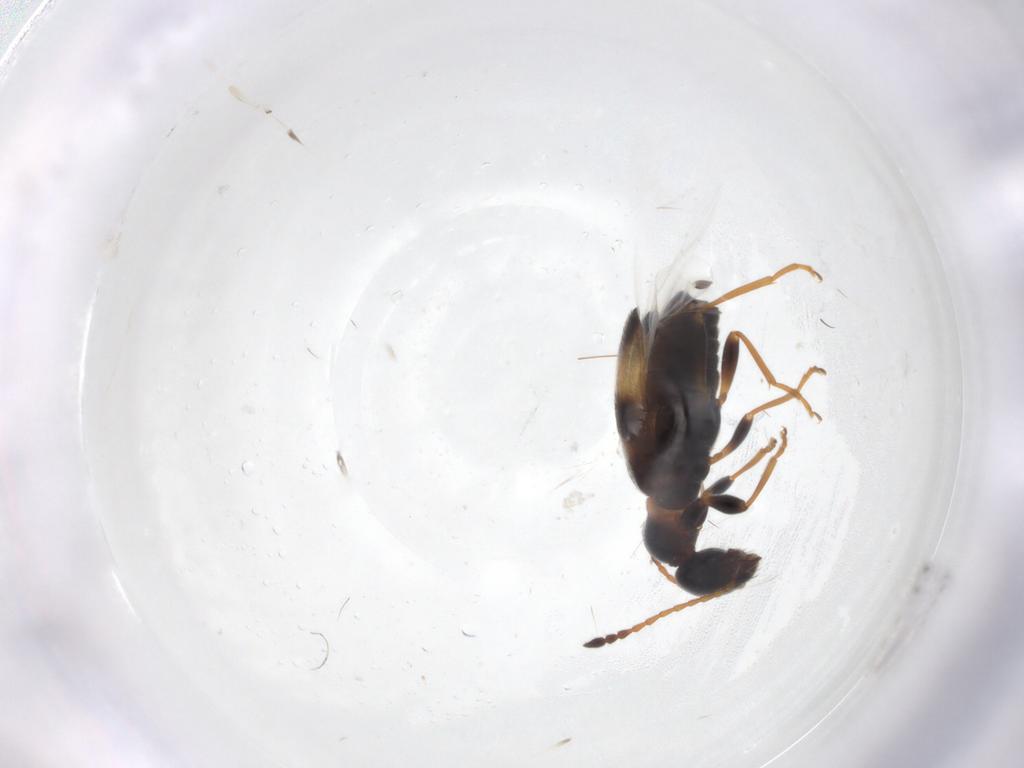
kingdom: Animalia
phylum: Arthropoda
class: Insecta
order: Coleoptera
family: Anthicidae
